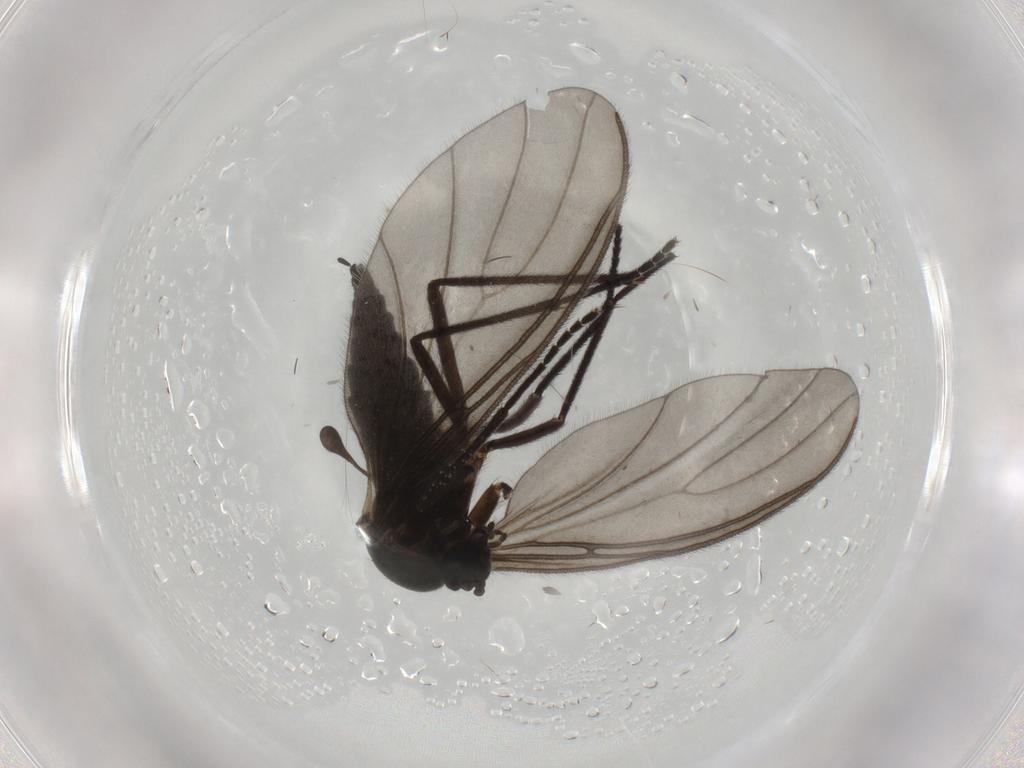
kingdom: Animalia
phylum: Arthropoda
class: Insecta
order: Diptera
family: Sciaridae
